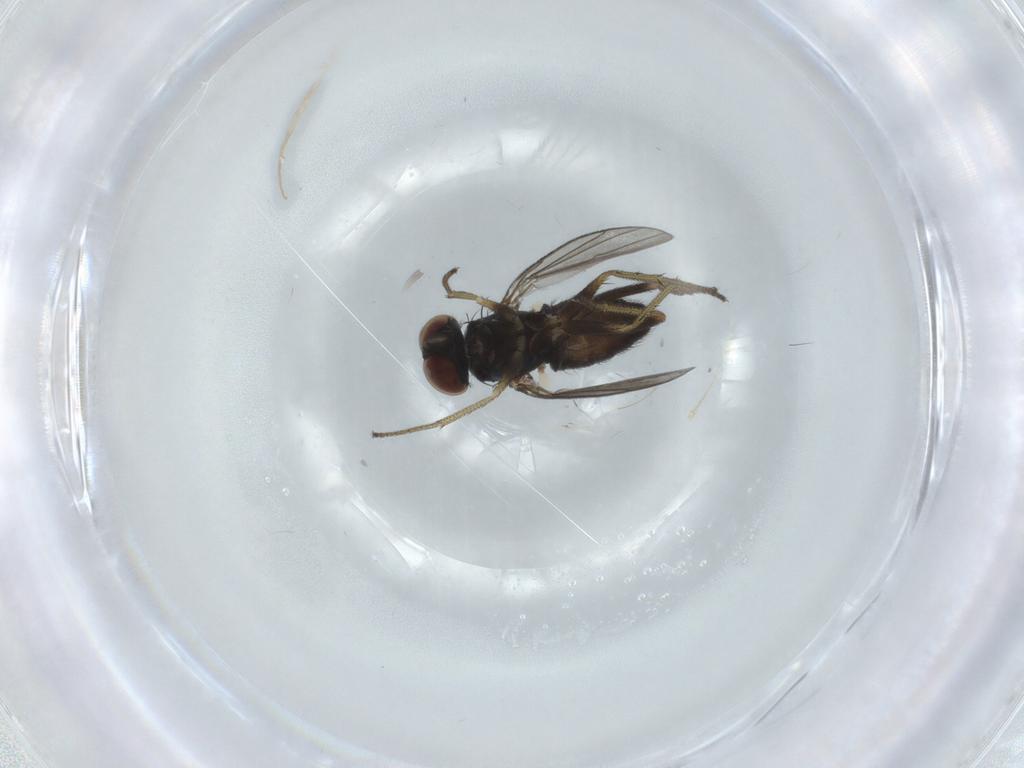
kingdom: Animalia
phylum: Arthropoda
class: Insecta
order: Diptera
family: Dolichopodidae
